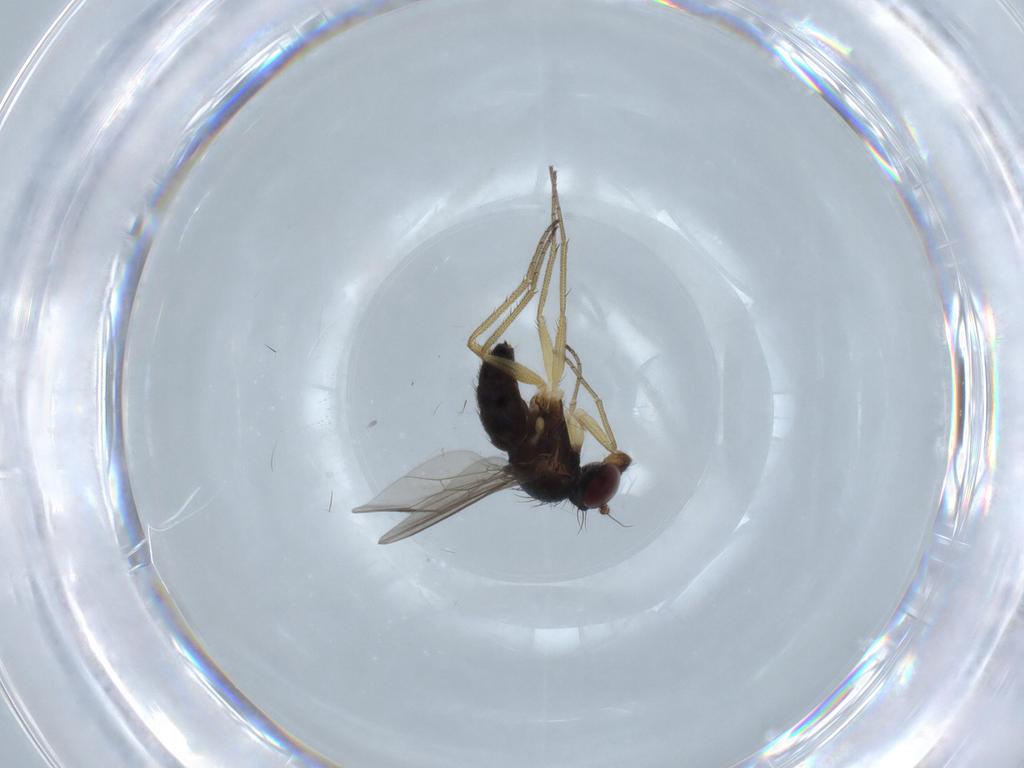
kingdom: Animalia
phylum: Arthropoda
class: Insecta
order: Diptera
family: Dolichopodidae
